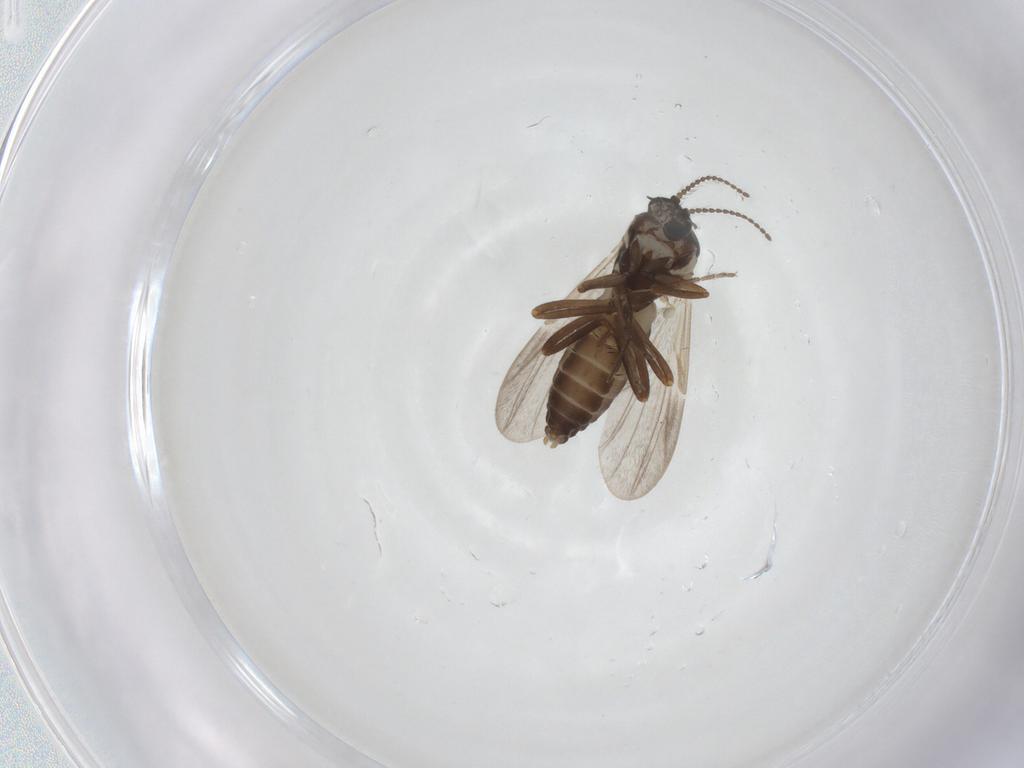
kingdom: Animalia
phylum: Arthropoda
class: Insecta
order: Diptera
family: Ceratopogonidae
